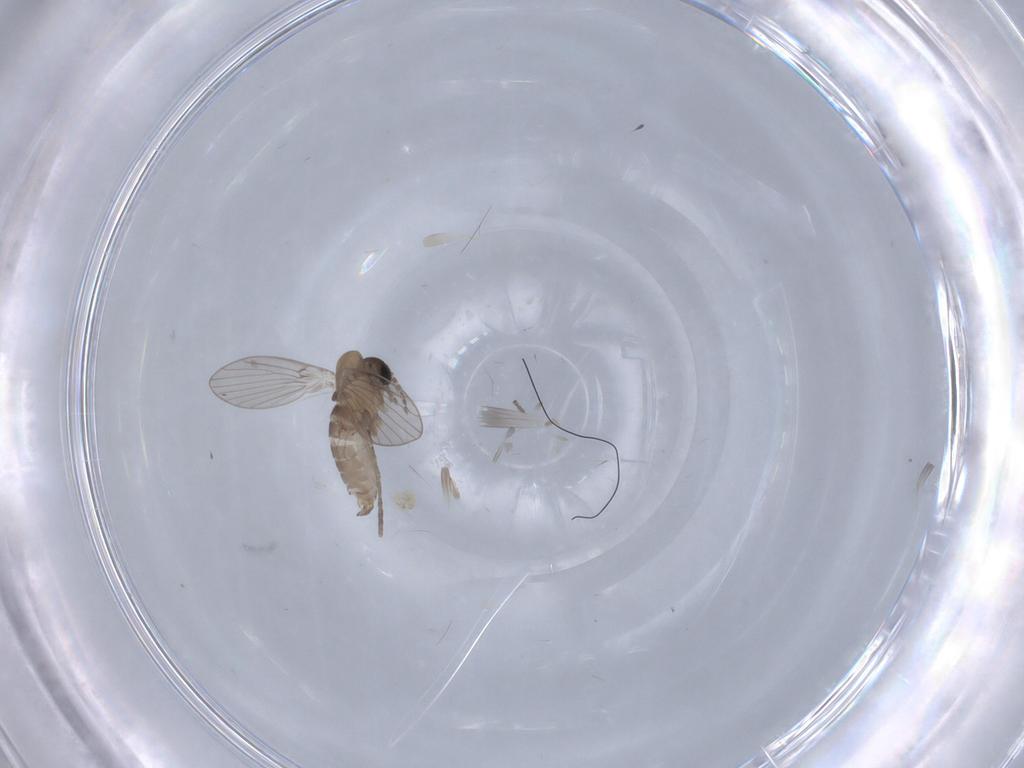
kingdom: Animalia
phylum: Arthropoda
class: Insecta
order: Diptera
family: Psychodidae
